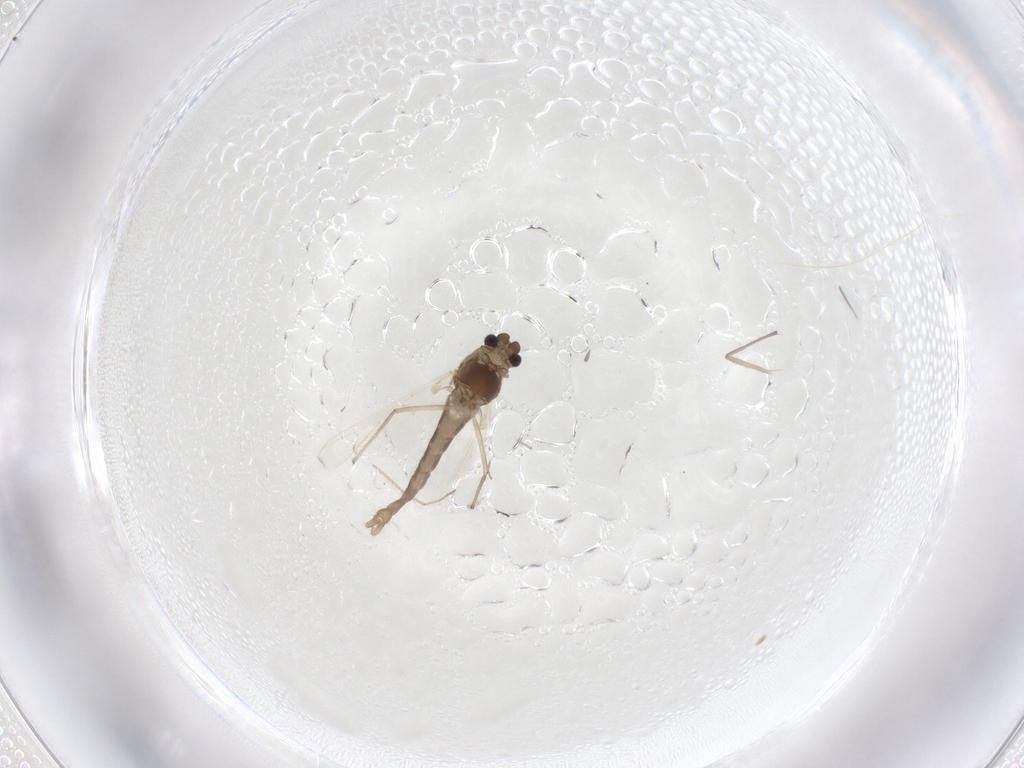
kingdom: Animalia
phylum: Arthropoda
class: Insecta
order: Diptera
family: Chironomidae
